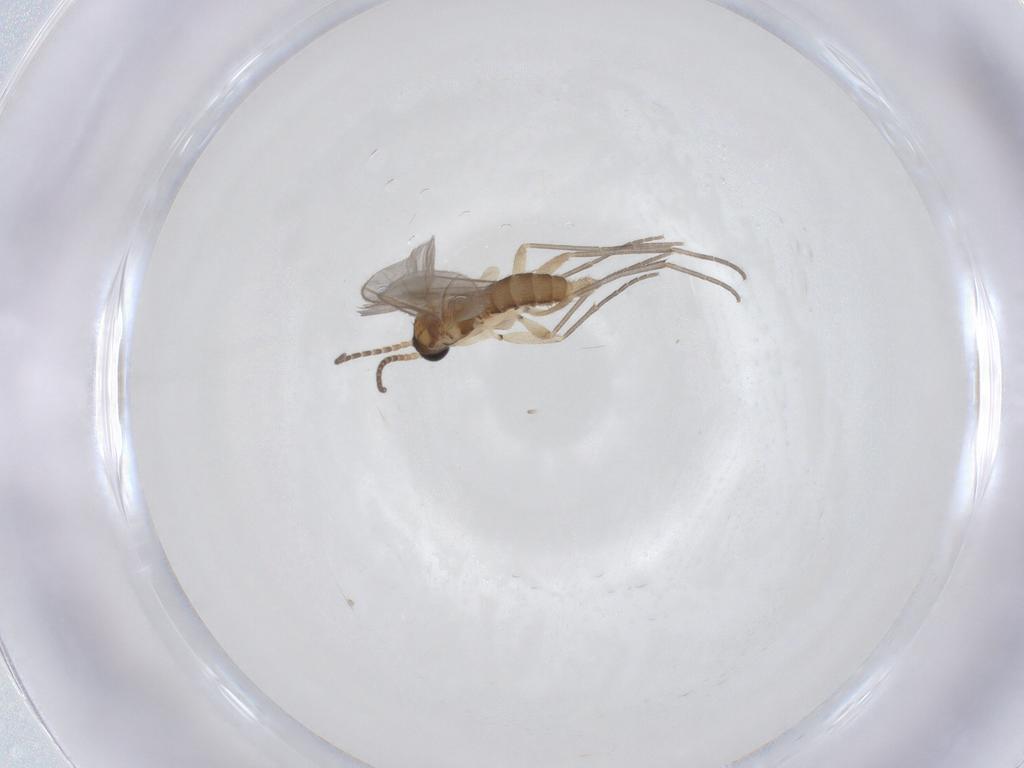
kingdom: Animalia
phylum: Arthropoda
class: Insecta
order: Diptera
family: Sciaridae
